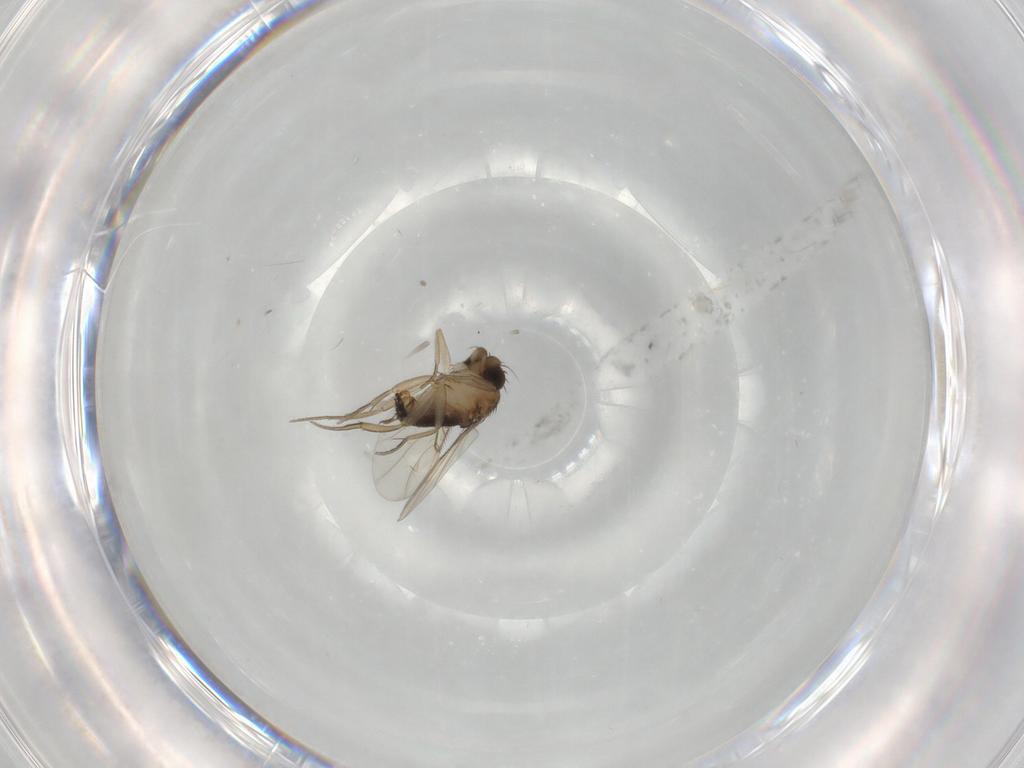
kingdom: Animalia
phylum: Arthropoda
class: Insecta
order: Diptera
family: Phoridae
